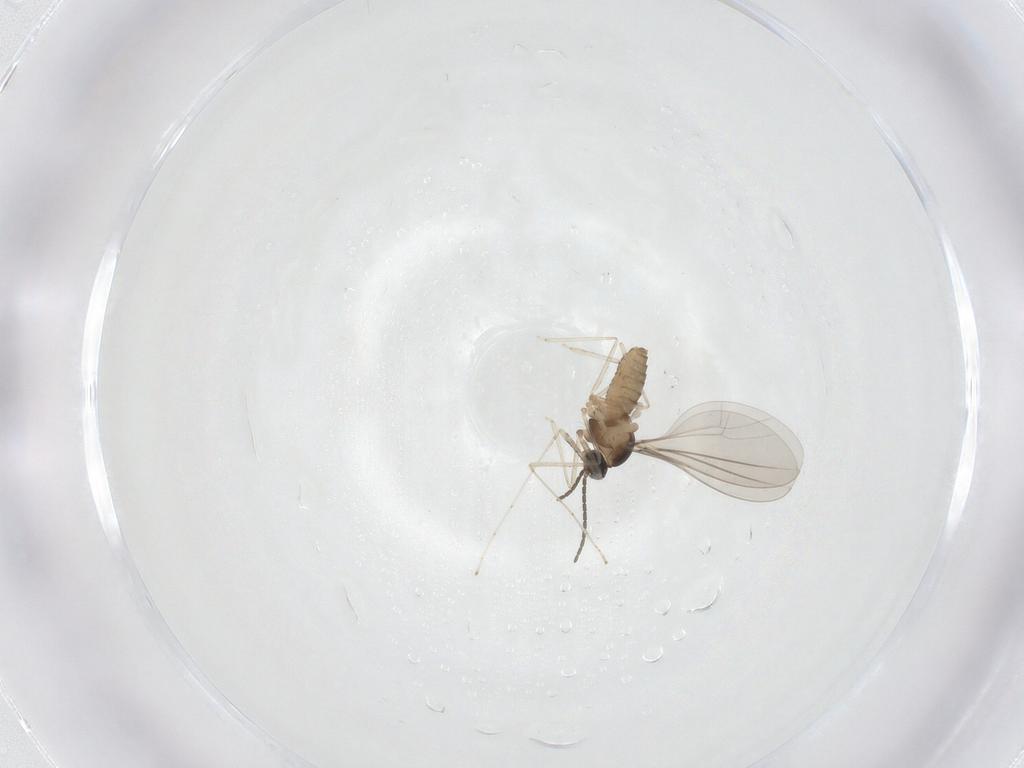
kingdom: Animalia
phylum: Arthropoda
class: Insecta
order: Diptera
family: Cecidomyiidae
